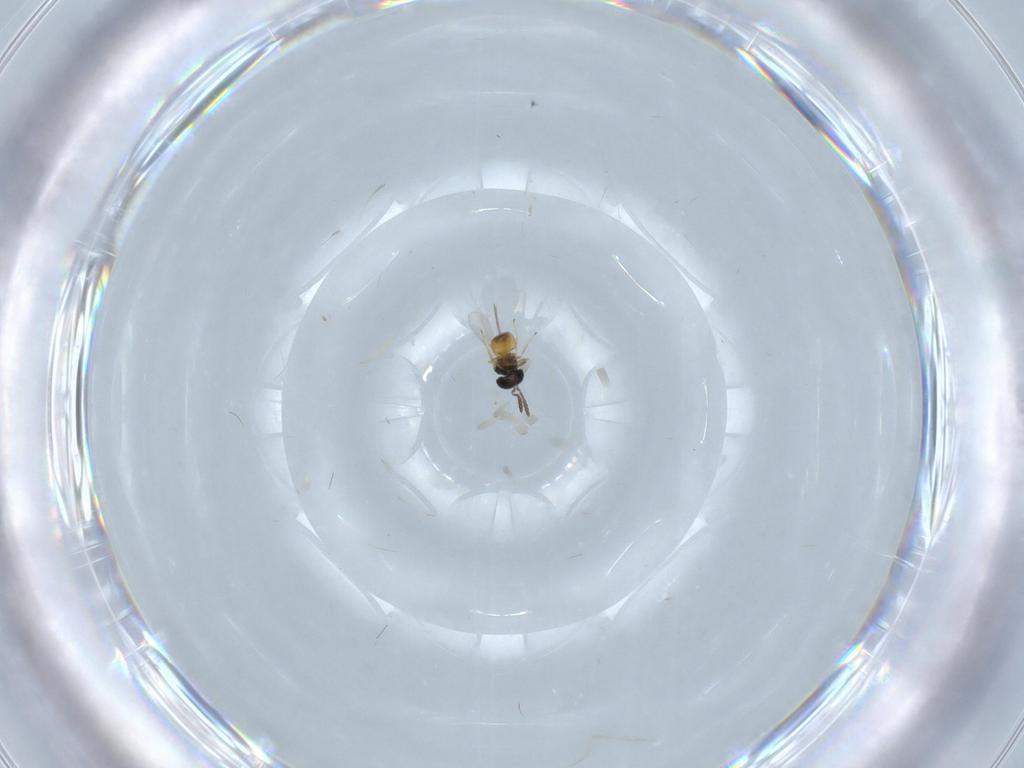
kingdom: Animalia
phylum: Arthropoda
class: Insecta
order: Hymenoptera
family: Scelionidae
